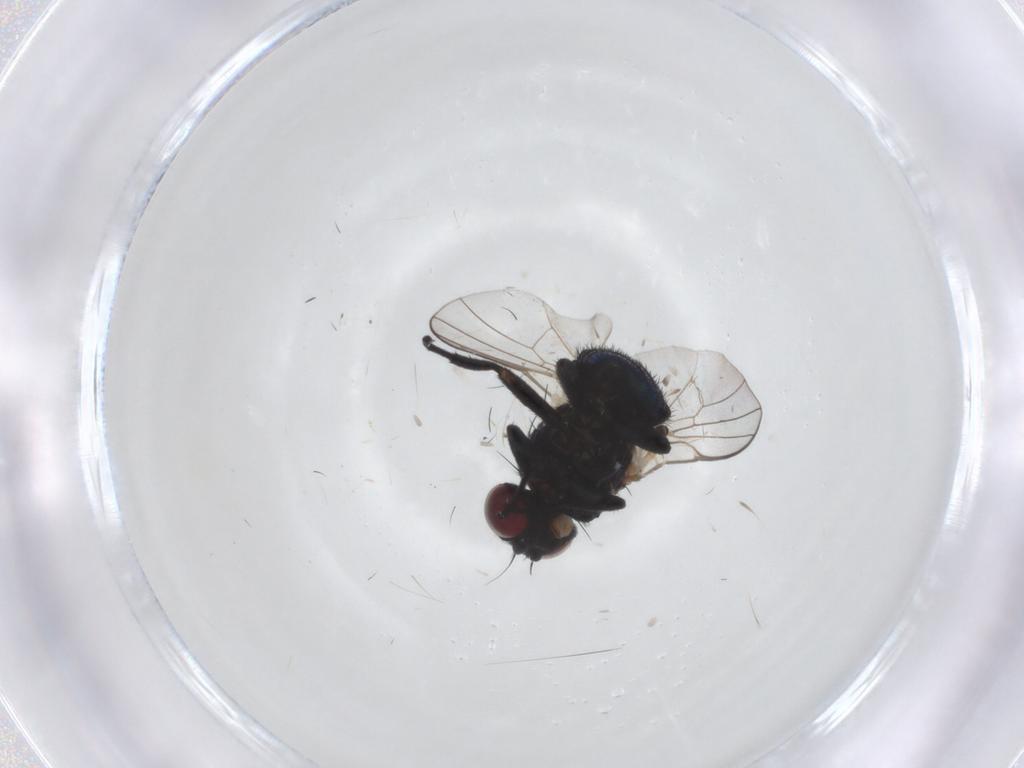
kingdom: Animalia
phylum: Arthropoda
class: Insecta
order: Diptera
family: Agromyzidae
